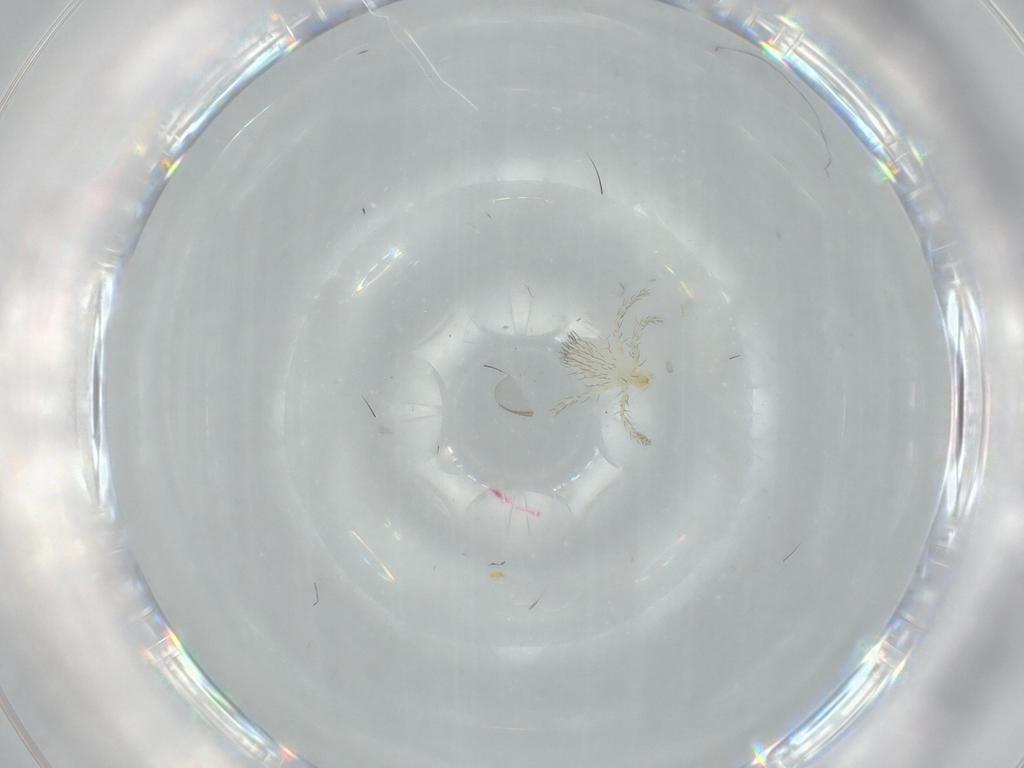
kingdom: Animalia
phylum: Arthropoda
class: Arachnida
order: Trombidiformes
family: Erythraeidae
